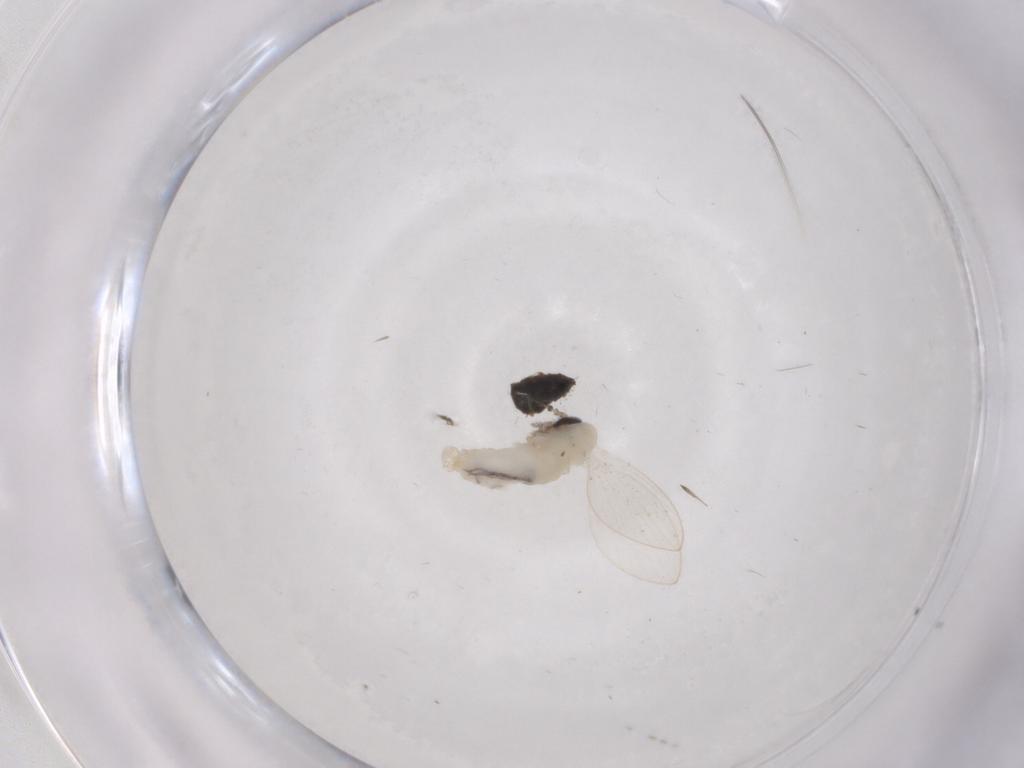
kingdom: Animalia
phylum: Arthropoda
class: Insecta
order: Diptera
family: Psychodidae
